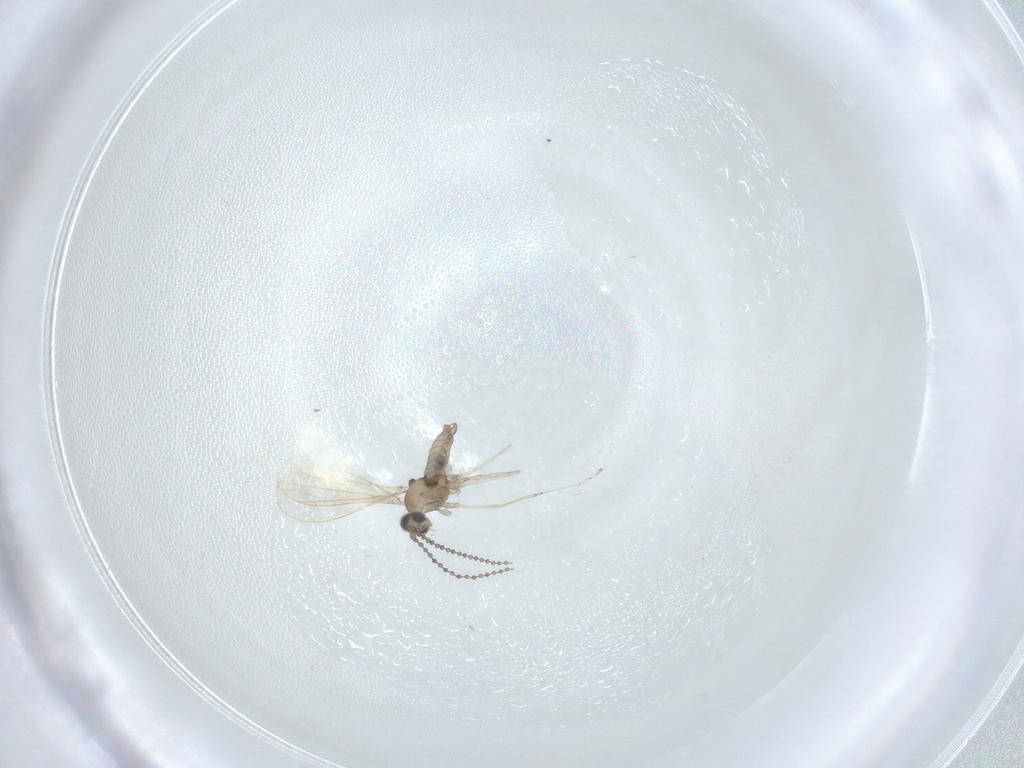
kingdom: Animalia
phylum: Arthropoda
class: Insecta
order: Diptera
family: Cecidomyiidae
